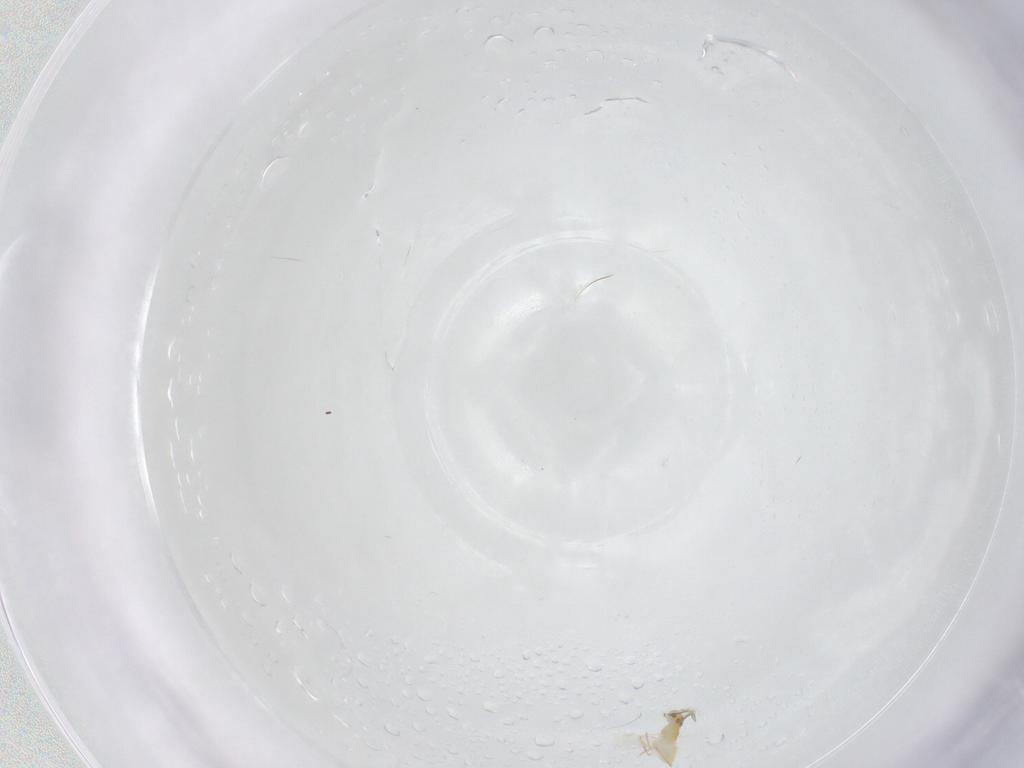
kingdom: Animalia
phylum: Arthropoda
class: Insecta
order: Hymenoptera
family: Aphelinidae
